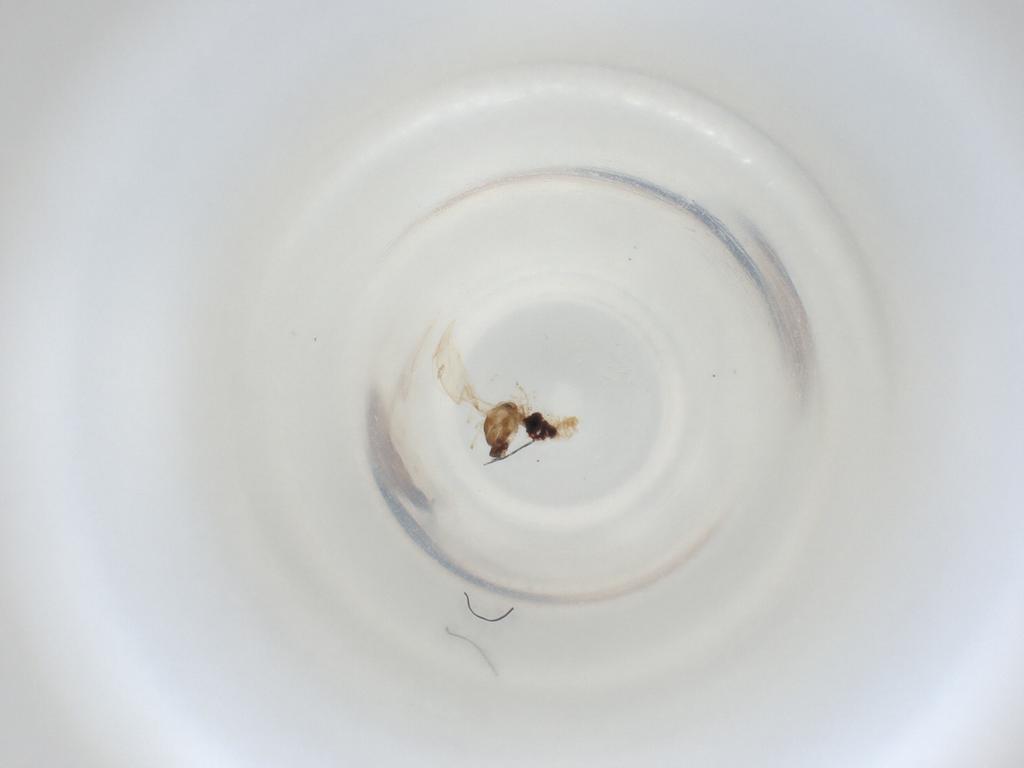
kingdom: Animalia
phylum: Arthropoda
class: Insecta
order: Diptera
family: Cecidomyiidae
